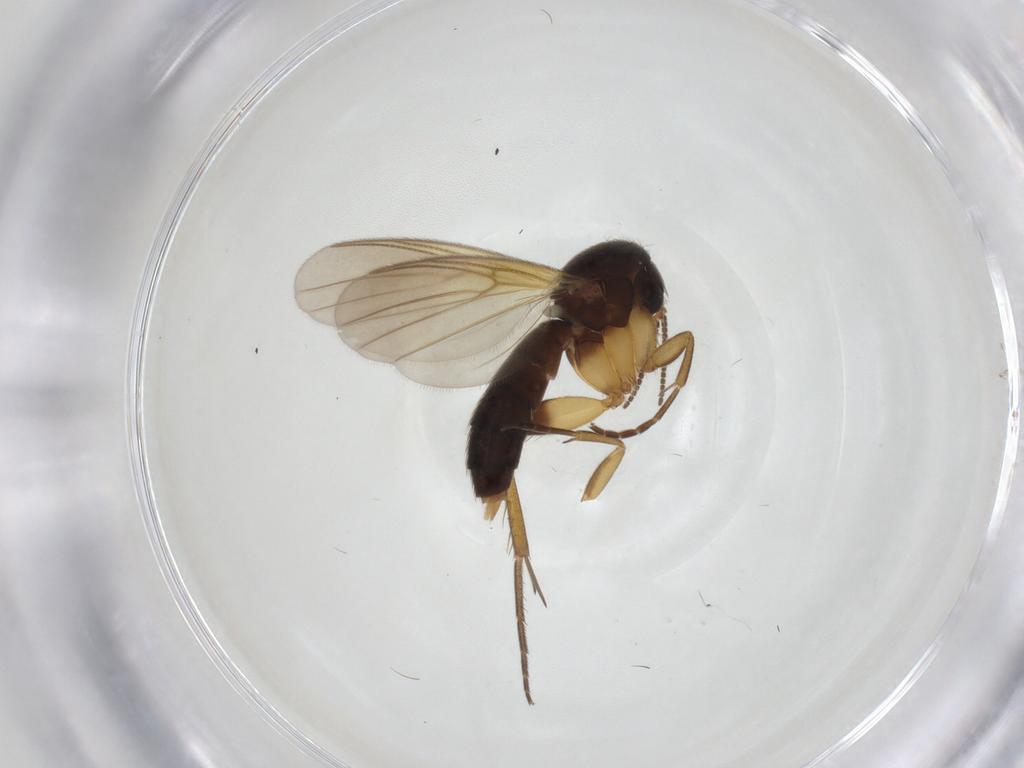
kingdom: Animalia
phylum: Arthropoda
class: Insecta
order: Diptera
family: Mycetophilidae
